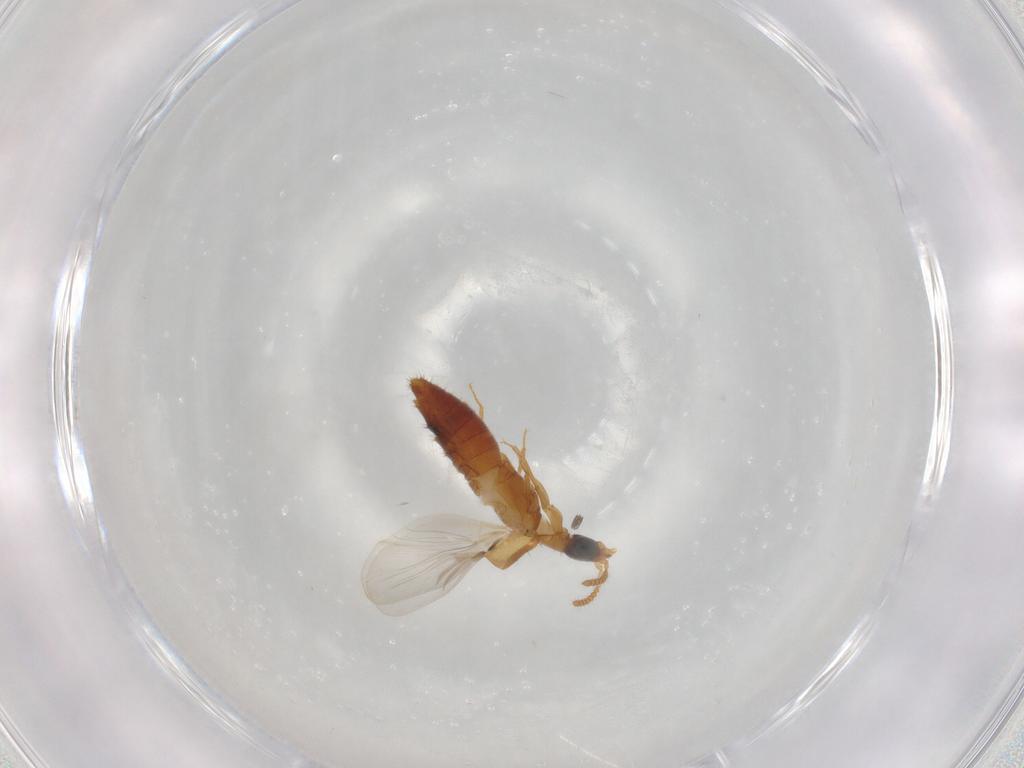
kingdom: Animalia
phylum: Arthropoda
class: Insecta
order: Coleoptera
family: Staphylinidae
